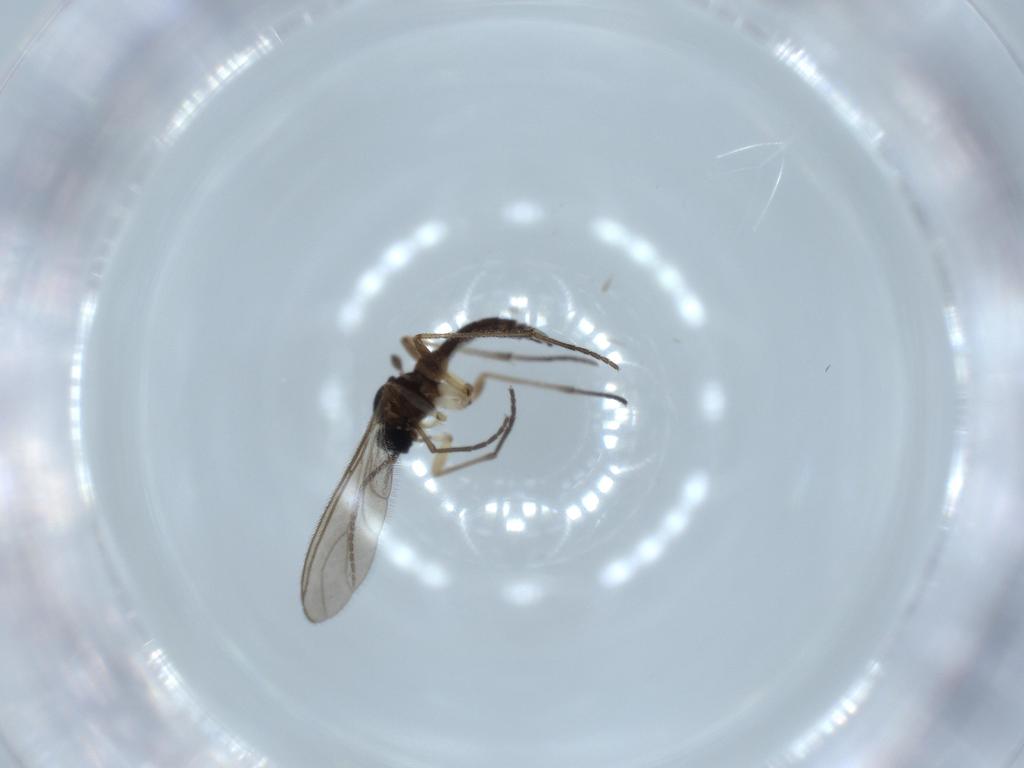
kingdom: Animalia
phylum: Arthropoda
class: Insecta
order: Diptera
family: Sciaridae
